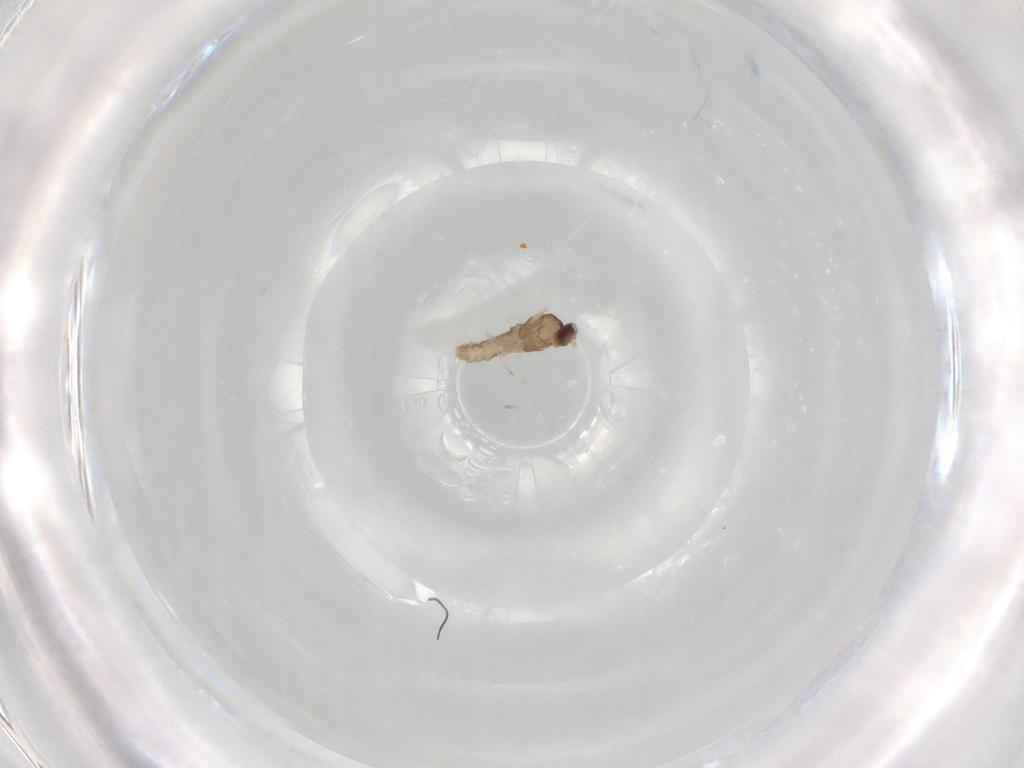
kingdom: Animalia
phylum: Arthropoda
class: Insecta
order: Diptera
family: Cecidomyiidae
